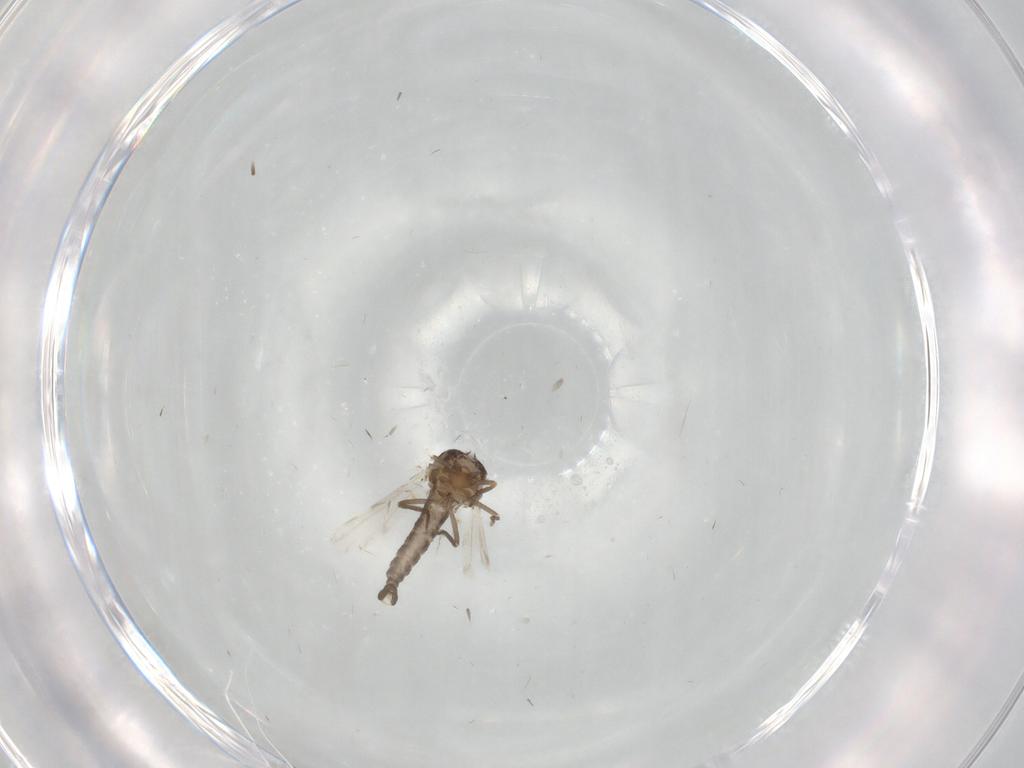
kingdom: Animalia
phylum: Arthropoda
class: Insecta
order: Diptera
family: Ceratopogonidae
